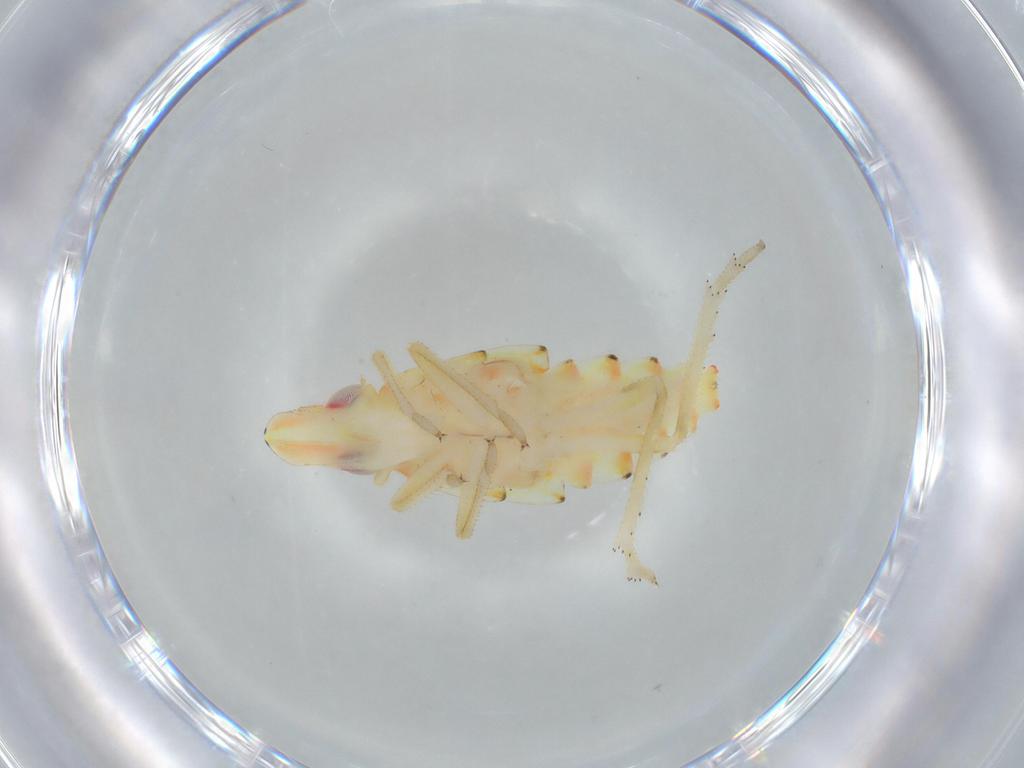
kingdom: Animalia
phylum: Arthropoda
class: Insecta
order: Hemiptera
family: Tropiduchidae
